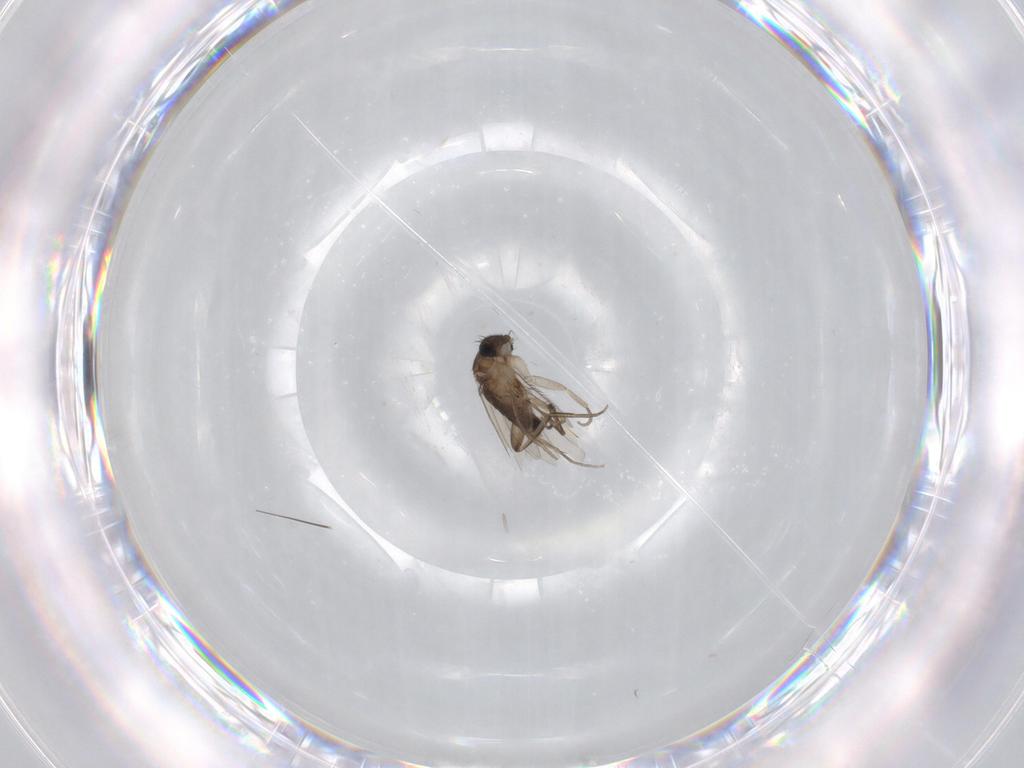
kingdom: Animalia
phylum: Arthropoda
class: Insecta
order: Diptera
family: Phoridae
